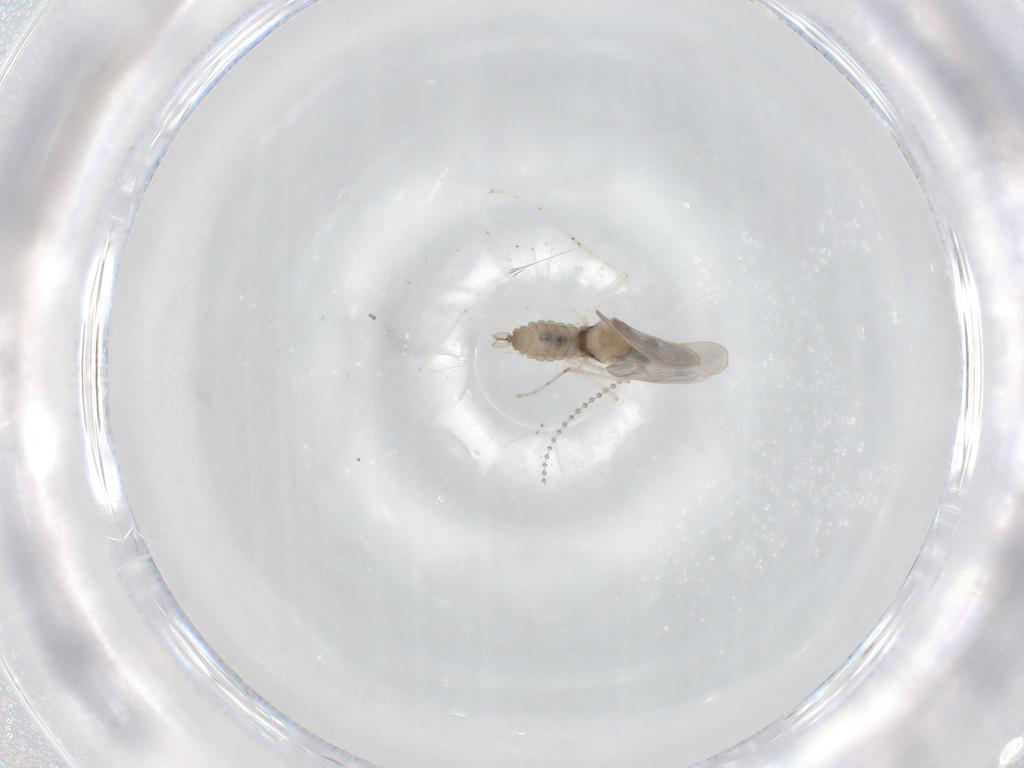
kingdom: Animalia
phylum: Arthropoda
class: Insecta
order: Diptera
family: Cecidomyiidae
